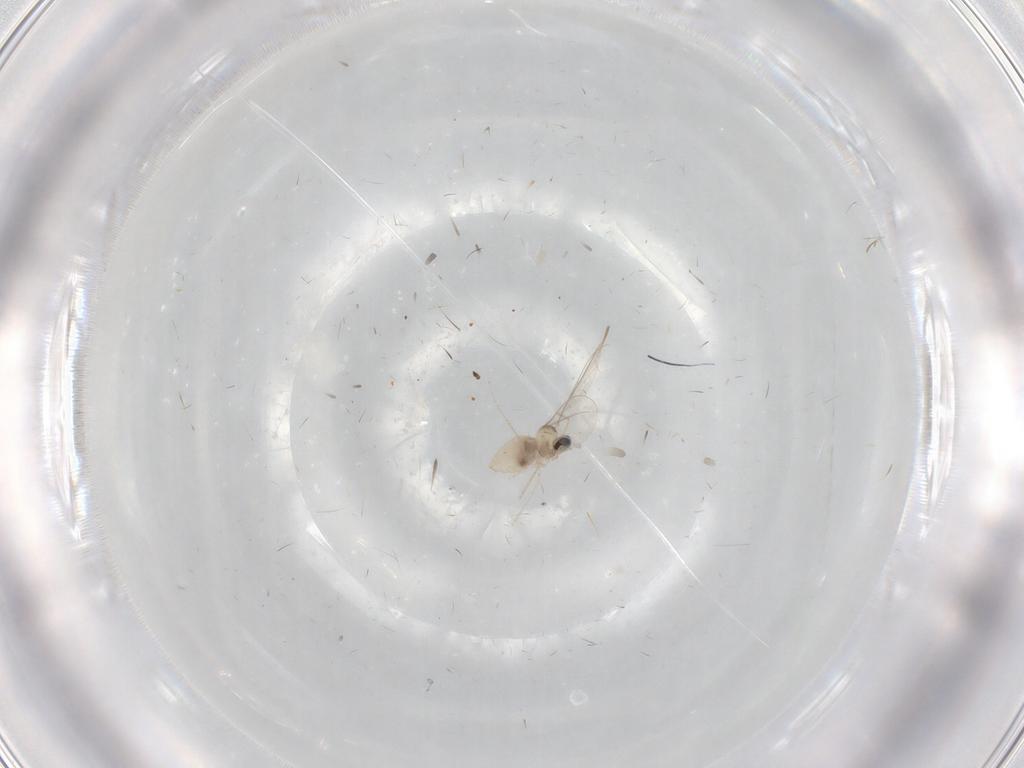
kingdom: Animalia
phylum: Arthropoda
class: Insecta
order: Diptera
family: Cecidomyiidae
